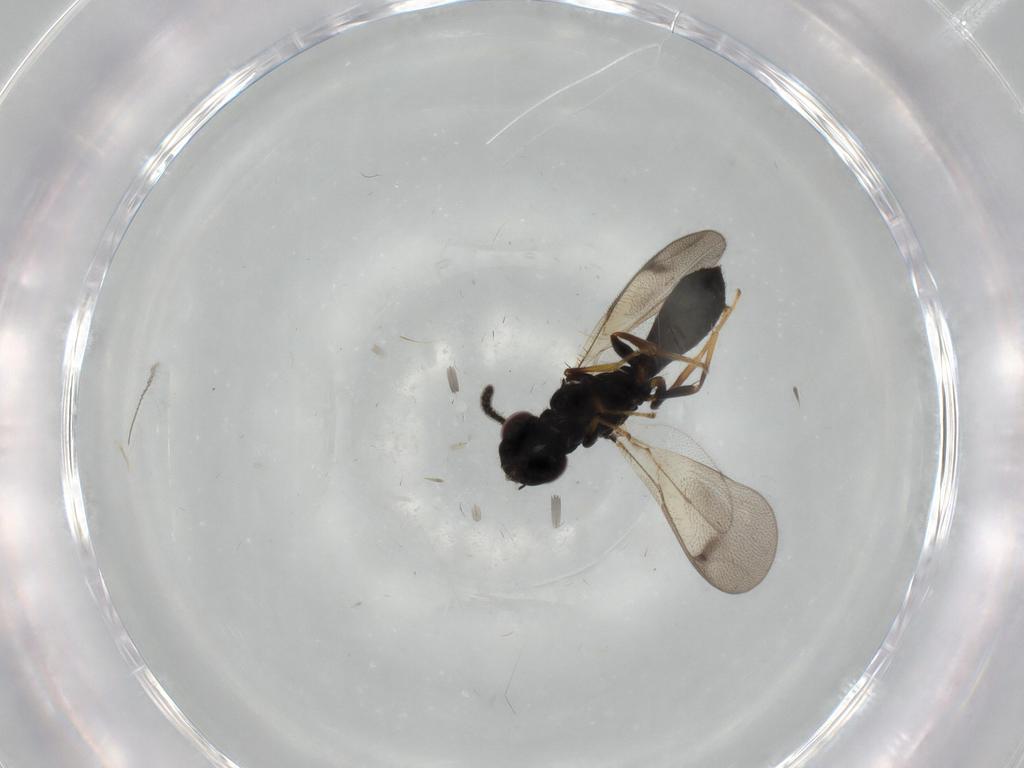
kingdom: Animalia
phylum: Arthropoda
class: Insecta
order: Hymenoptera
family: Pteromalidae
